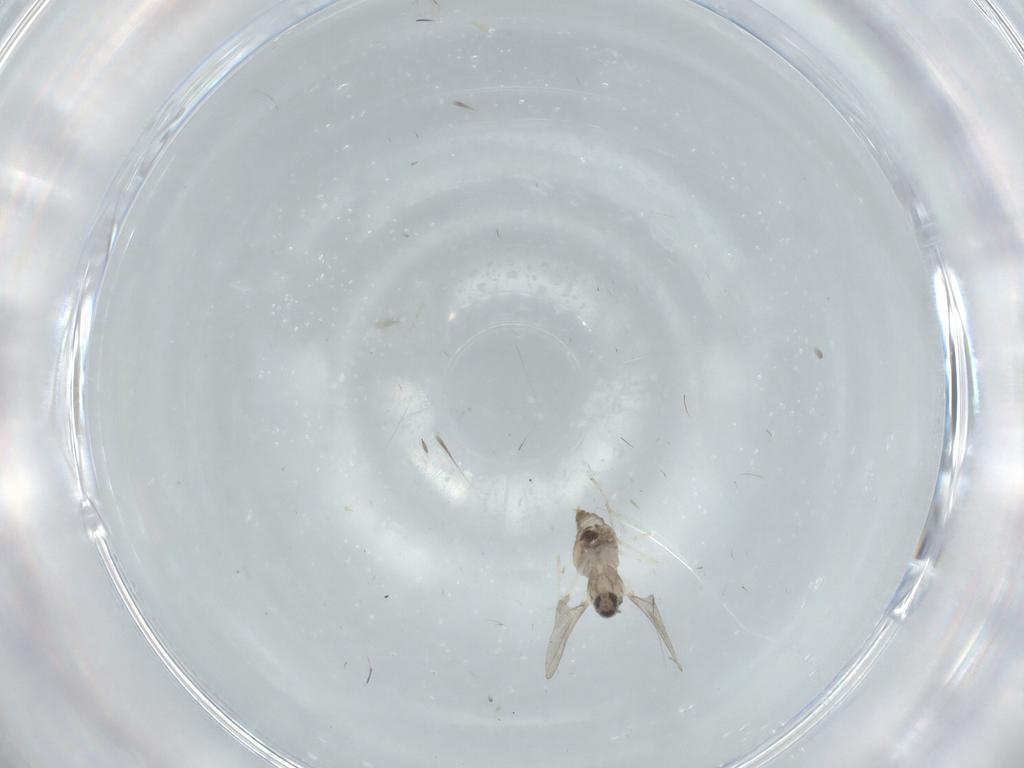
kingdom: Animalia
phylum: Arthropoda
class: Insecta
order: Diptera
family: Cecidomyiidae
